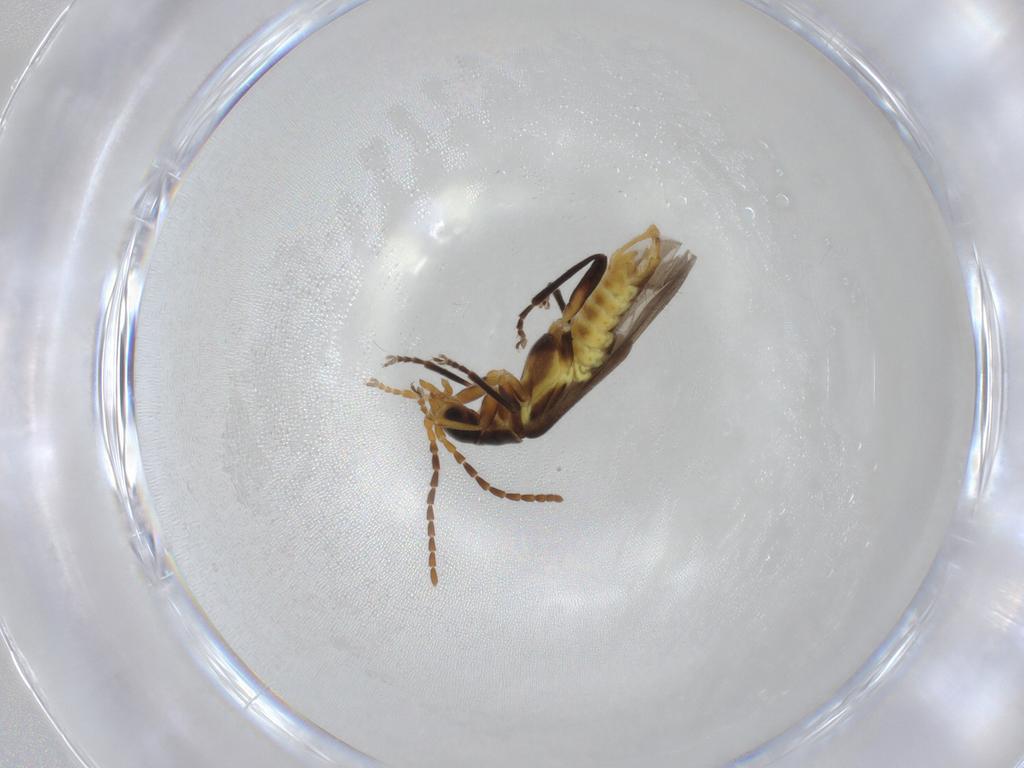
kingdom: Animalia
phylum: Arthropoda
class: Insecta
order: Coleoptera
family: Cantharidae
